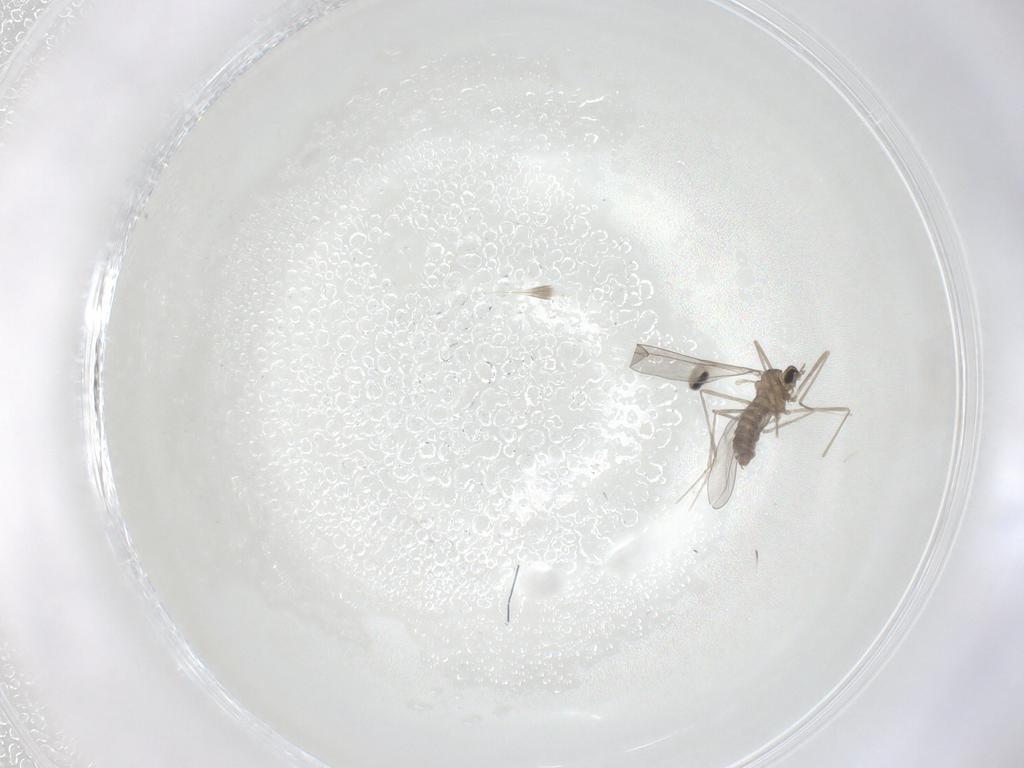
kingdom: Animalia
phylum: Arthropoda
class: Insecta
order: Diptera
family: Cecidomyiidae
